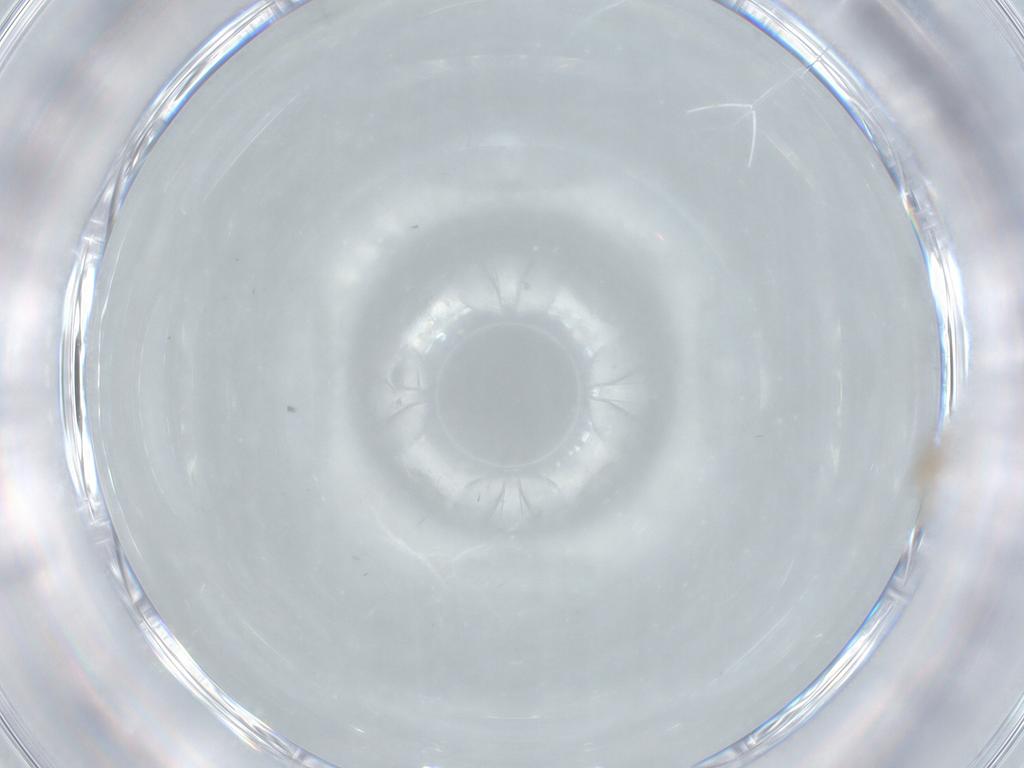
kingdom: Animalia
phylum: Arthropoda
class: Insecta
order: Diptera
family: Chironomidae
